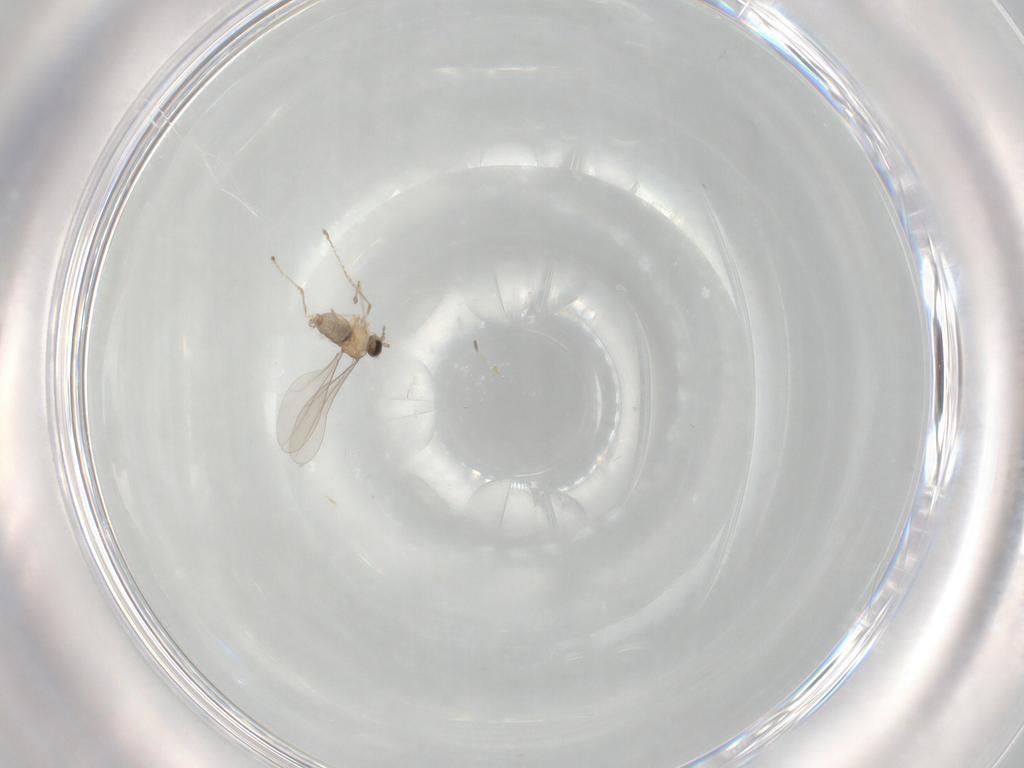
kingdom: Animalia
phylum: Arthropoda
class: Insecta
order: Diptera
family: Cecidomyiidae
